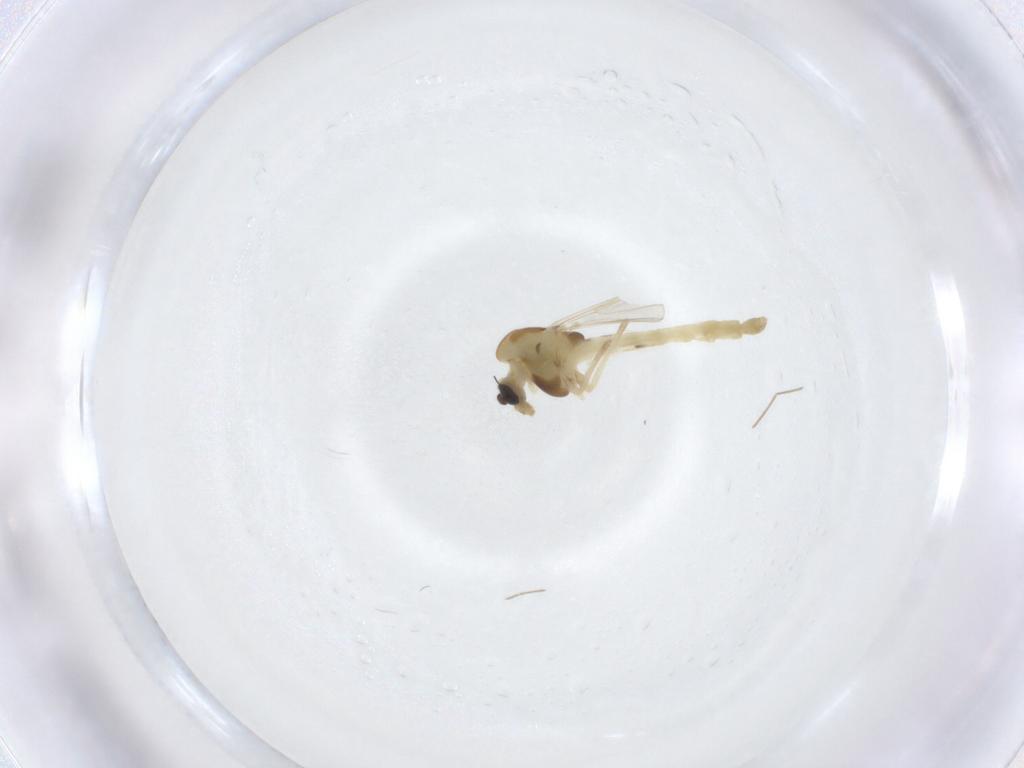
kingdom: Animalia
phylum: Arthropoda
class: Insecta
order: Diptera
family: Chironomidae
